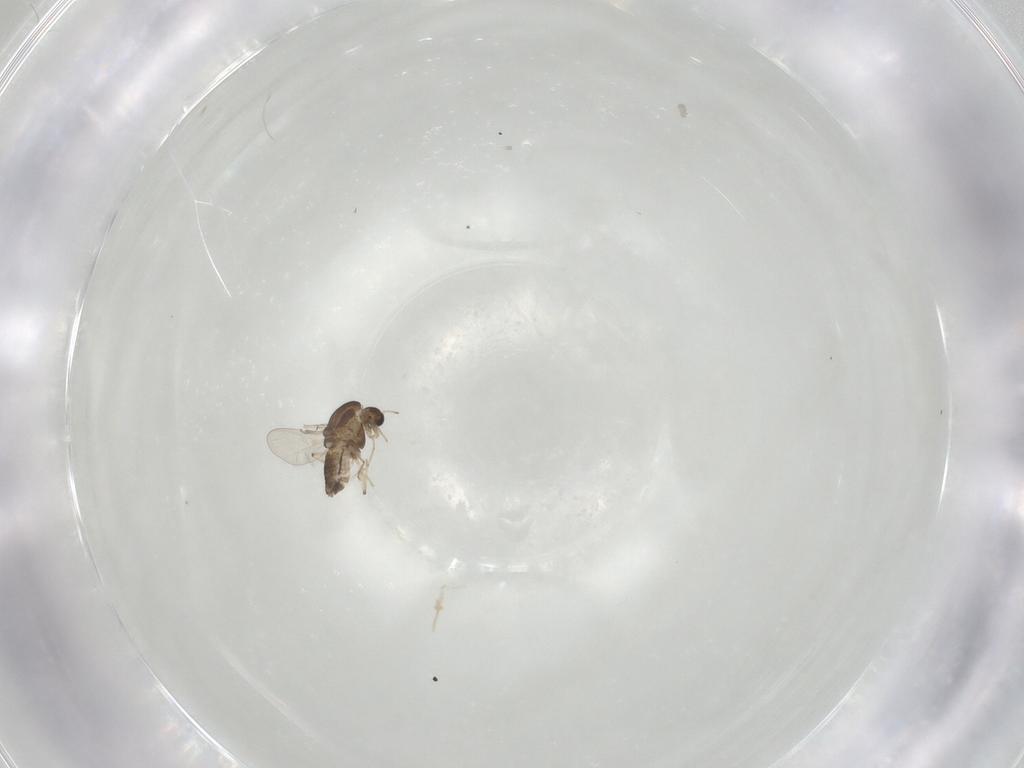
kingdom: Animalia
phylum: Arthropoda
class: Insecta
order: Diptera
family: Chironomidae
